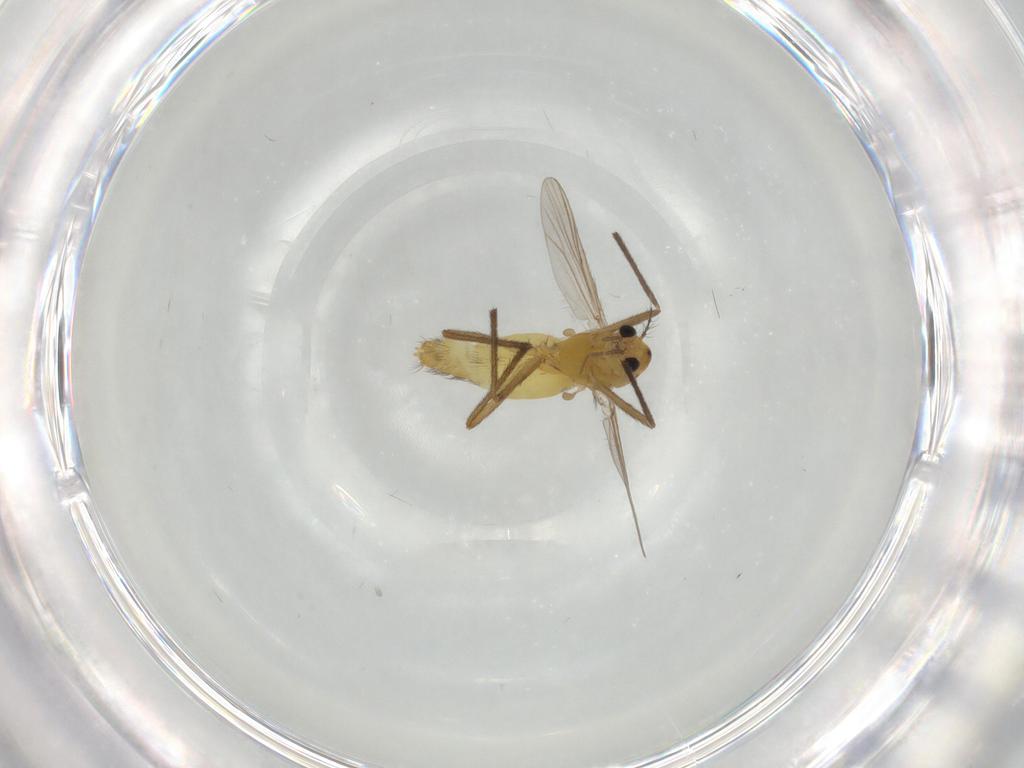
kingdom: Animalia
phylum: Arthropoda
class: Insecta
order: Diptera
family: Chironomidae
